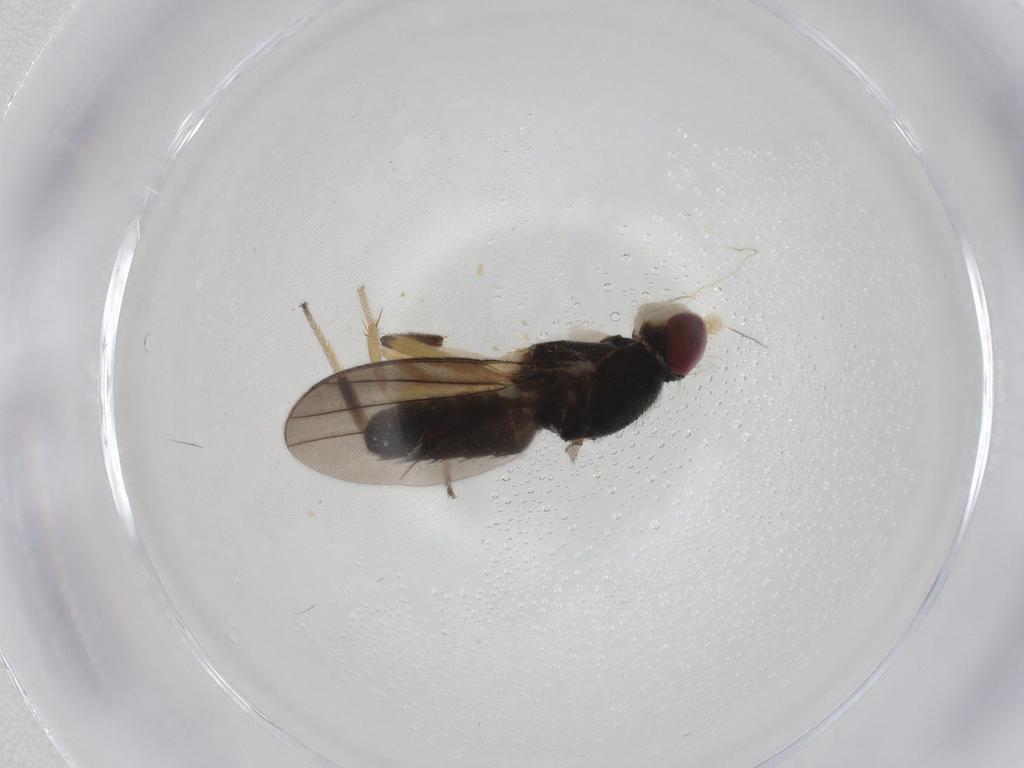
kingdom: Animalia
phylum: Arthropoda
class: Insecta
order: Diptera
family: Clusiidae
